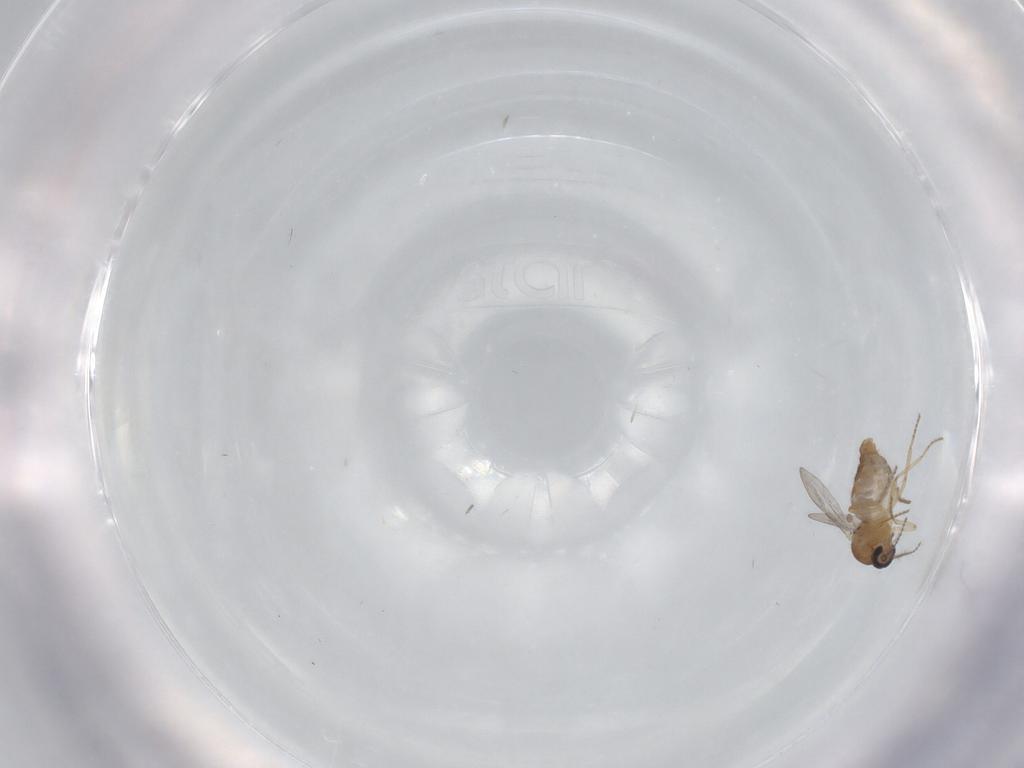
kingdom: Animalia
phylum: Arthropoda
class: Insecta
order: Diptera
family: Ceratopogonidae
